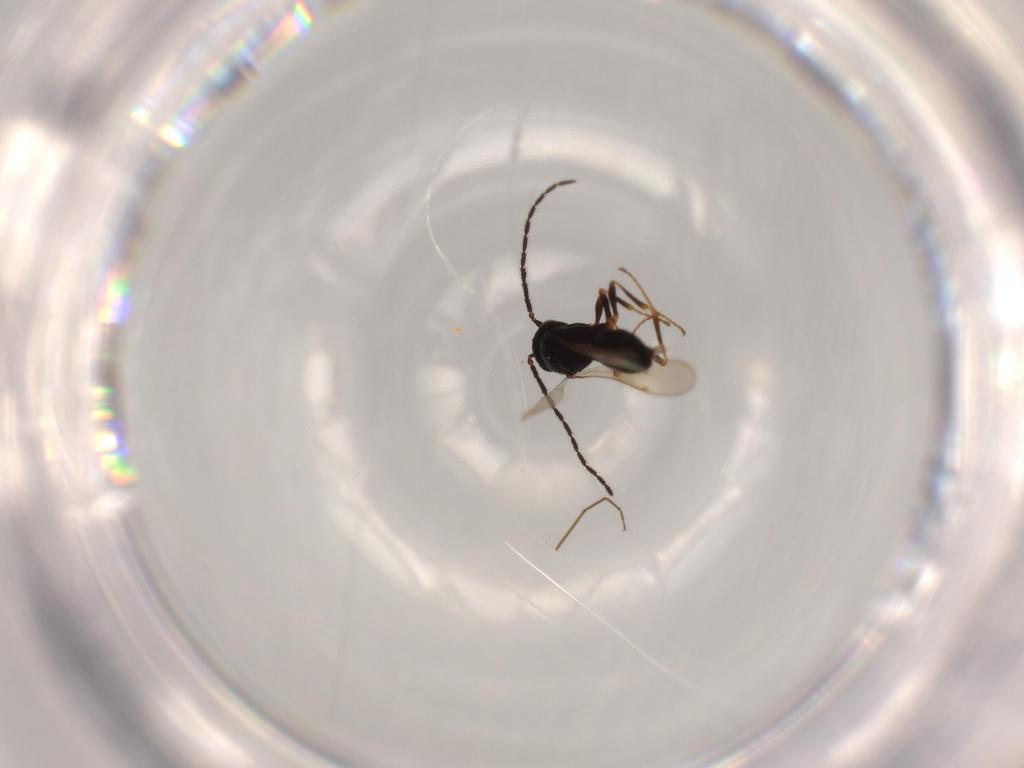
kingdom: Animalia
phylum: Arthropoda
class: Insecta
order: Hymenoptera
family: Scelionidae
